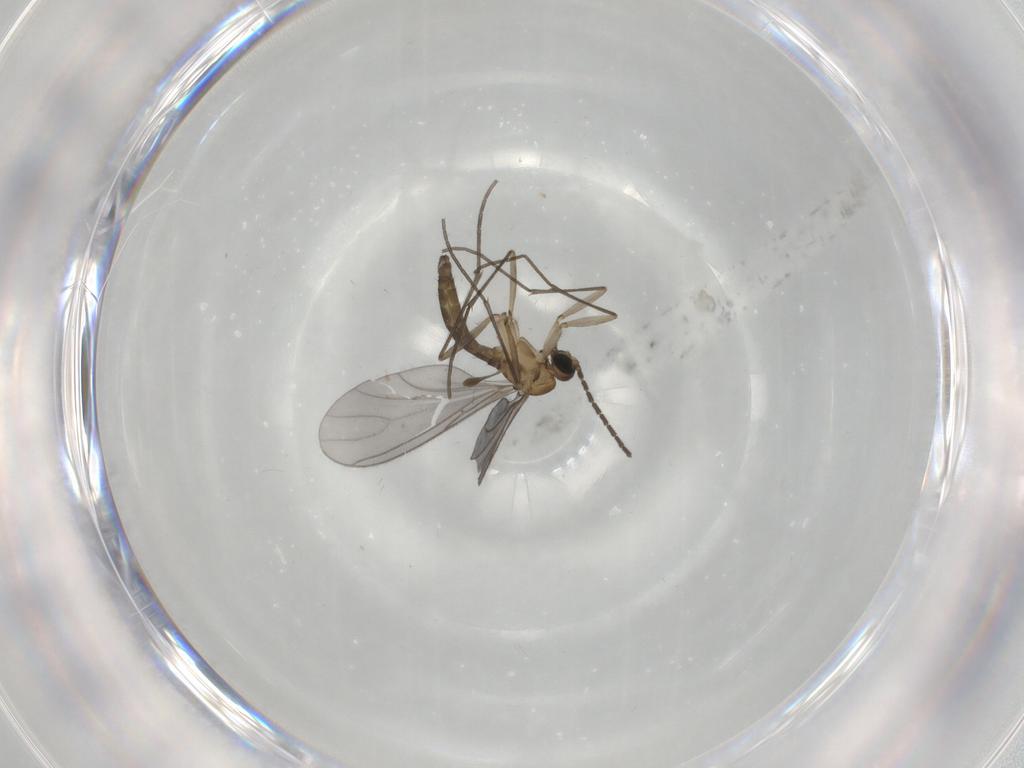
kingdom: Animalia
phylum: Arthropoda
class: Insecta
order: Diptera
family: Sciaridae
